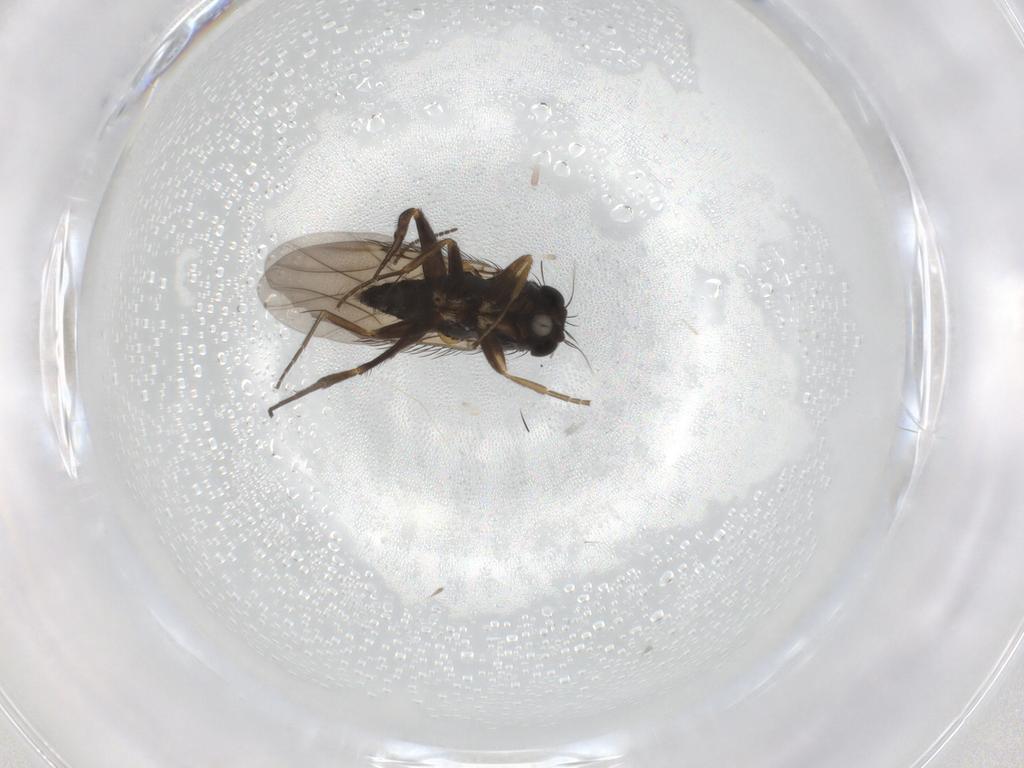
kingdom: Animalia
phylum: Arthropoda
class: Insecta
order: Diptera
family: Phoridae
